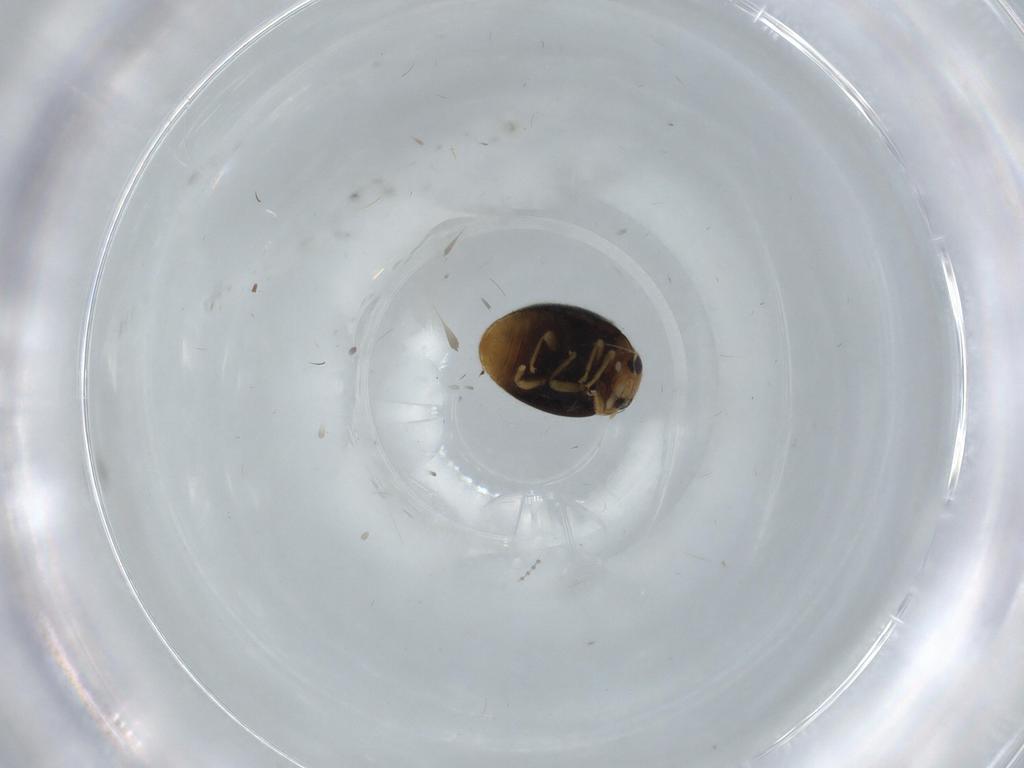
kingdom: Animalia
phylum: Arthropoda
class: Insecta
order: Coleoptera
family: Coccinellidae
